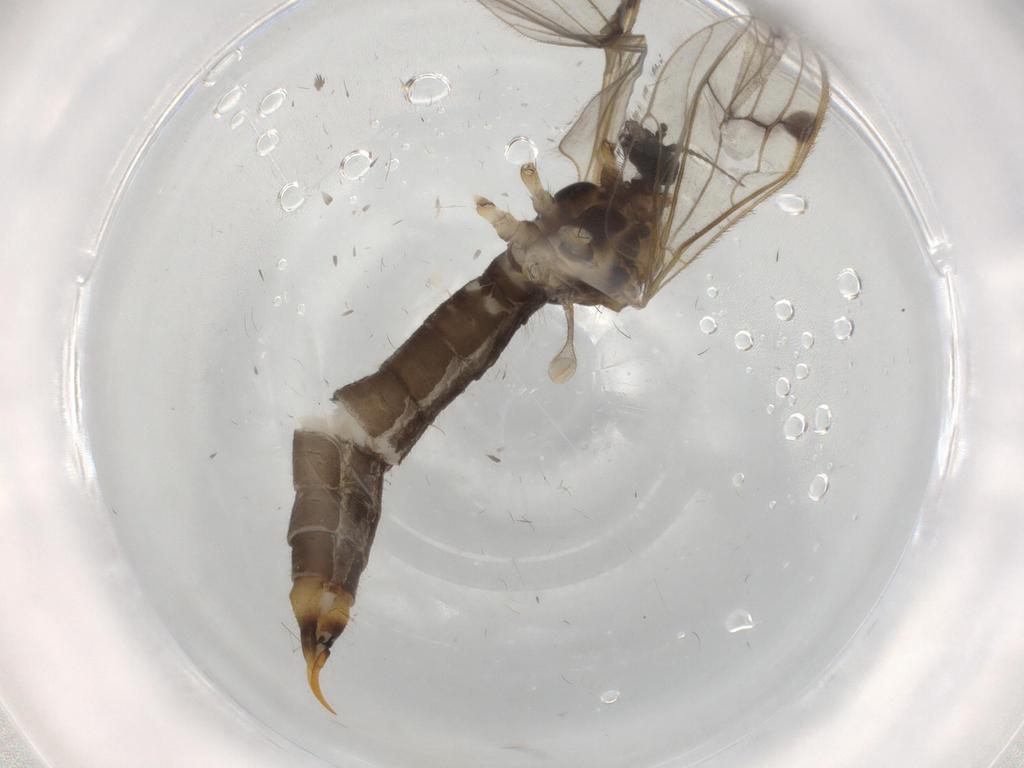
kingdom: Animalia
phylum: Arthropoda
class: Insecta
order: Diptera
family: Limoniidae
